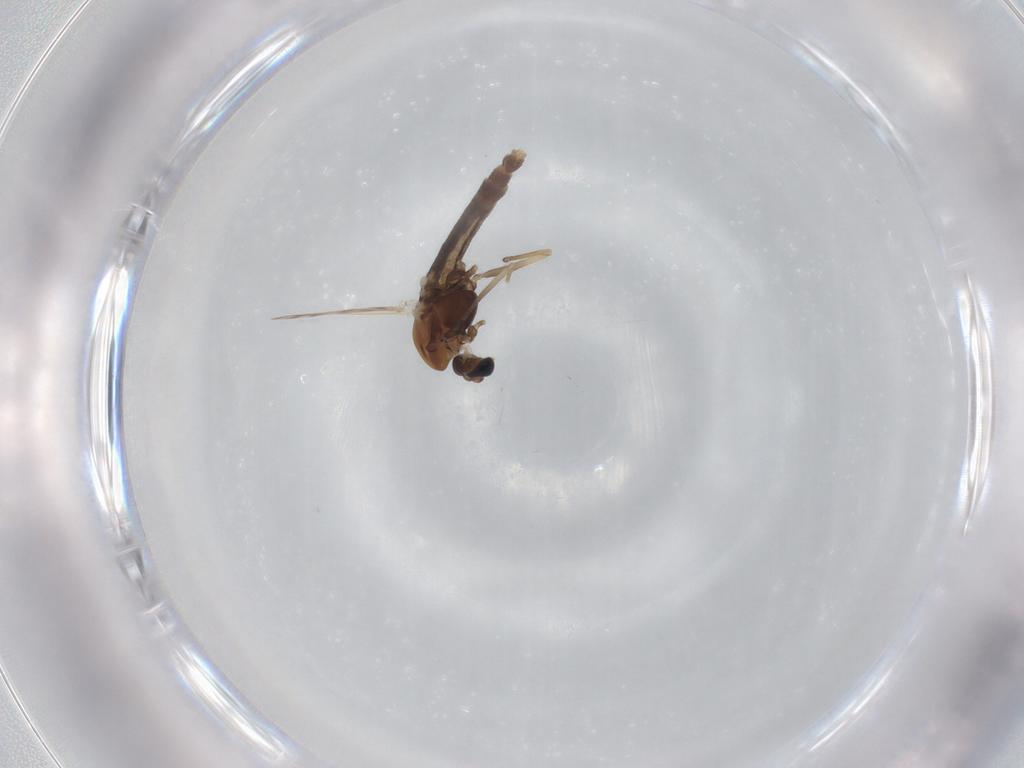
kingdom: Animalia
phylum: Arthropoda
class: Insecta
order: Diptera
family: Chironomidae
